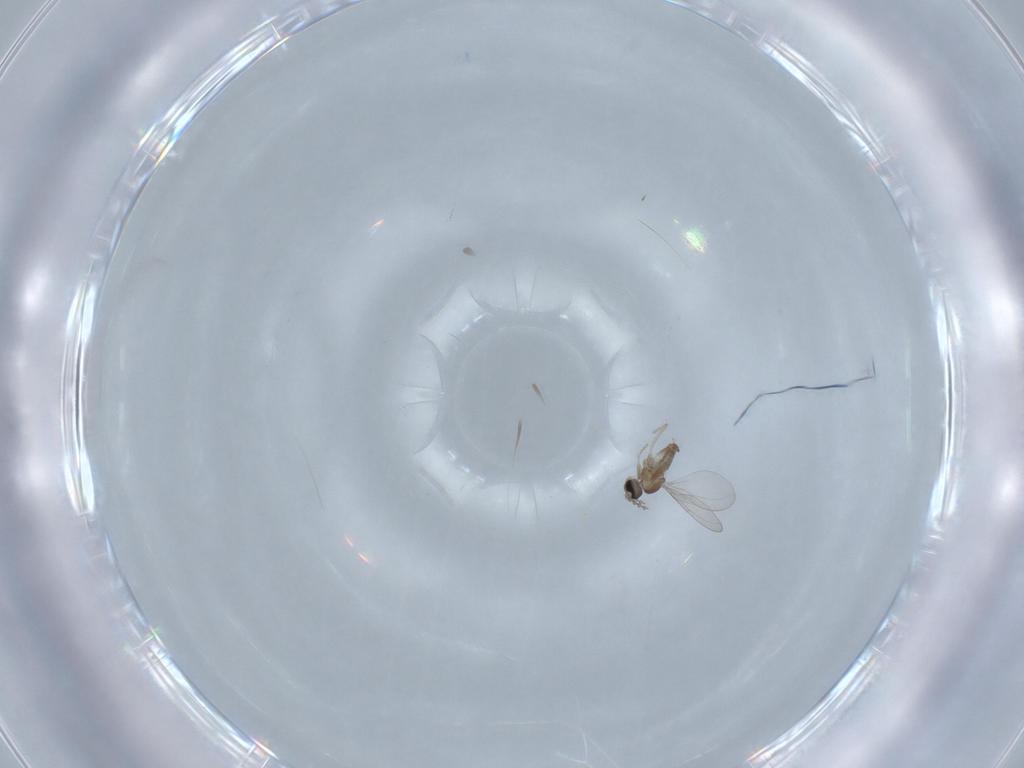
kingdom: Animalia
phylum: Arthropoda
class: Insecta
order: Diptera
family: Cecidomyiidae
